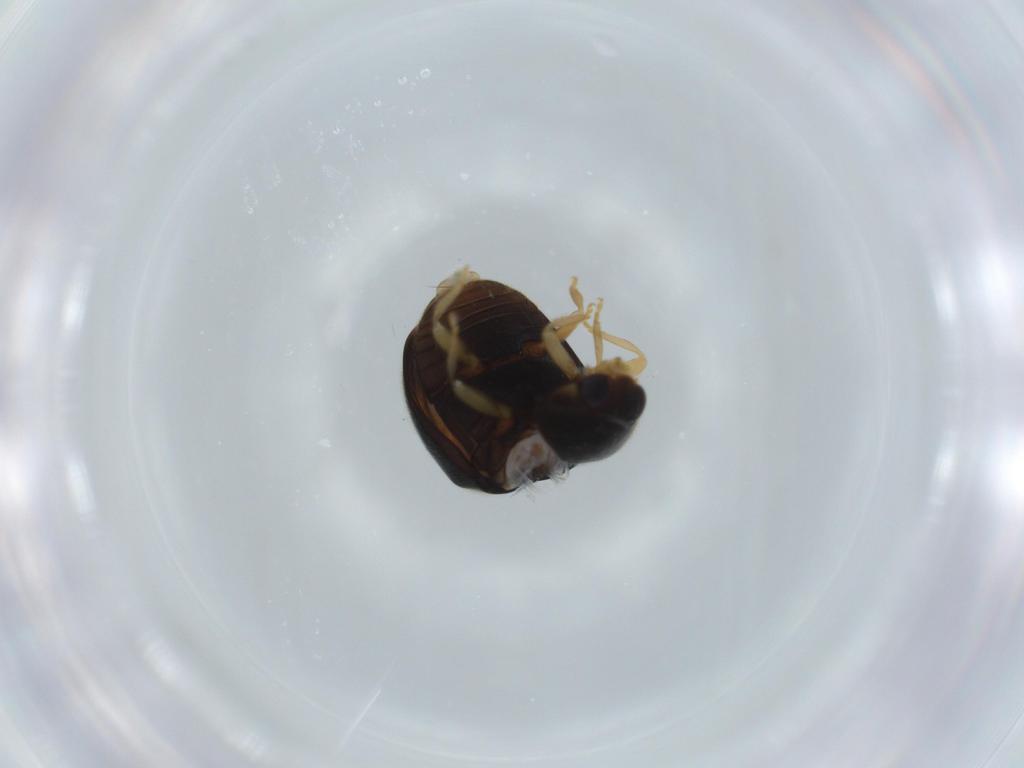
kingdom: Animalia
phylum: Arthropoda
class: Insecta
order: Coleoptera
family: Coccinellidae
